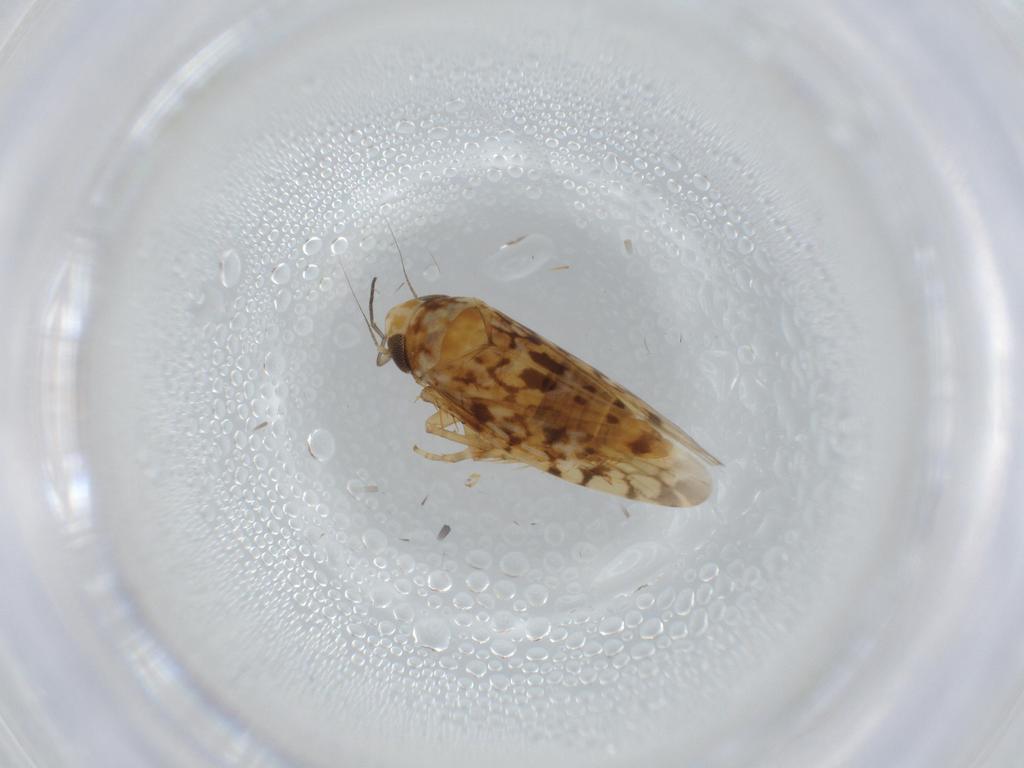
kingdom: Animalia
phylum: Arthropoda
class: Insecta
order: Hemiptera
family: Cicadellidae
